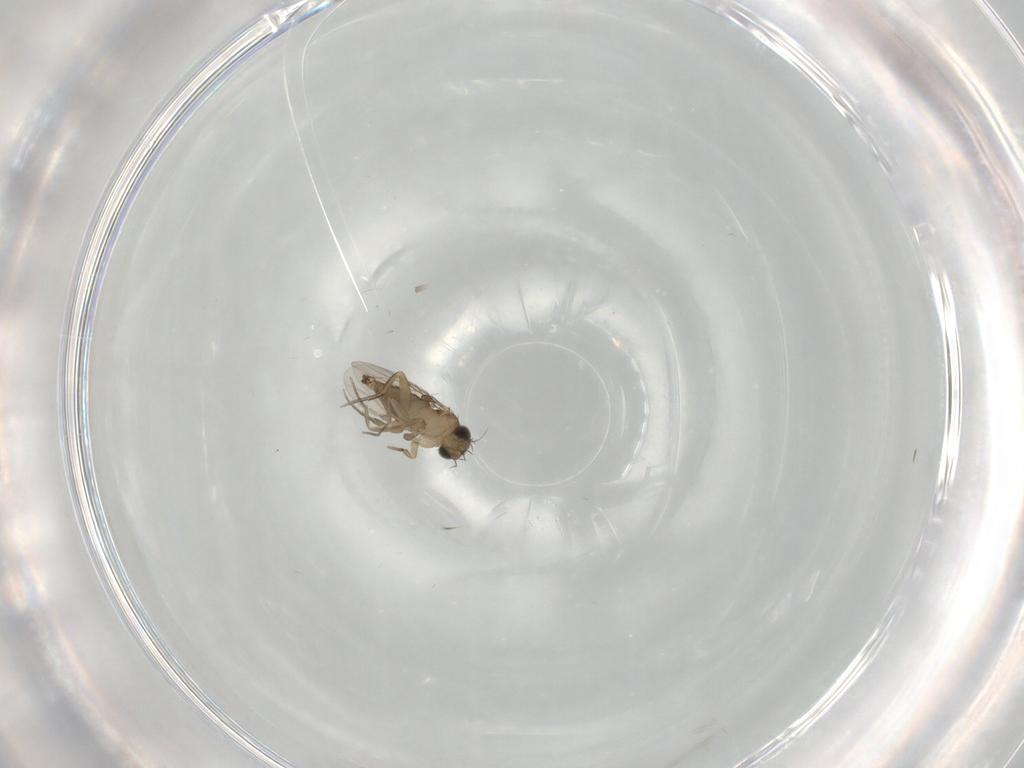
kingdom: Animalia
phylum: Arthropoda
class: Insecta
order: Diptera
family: Phoridae
